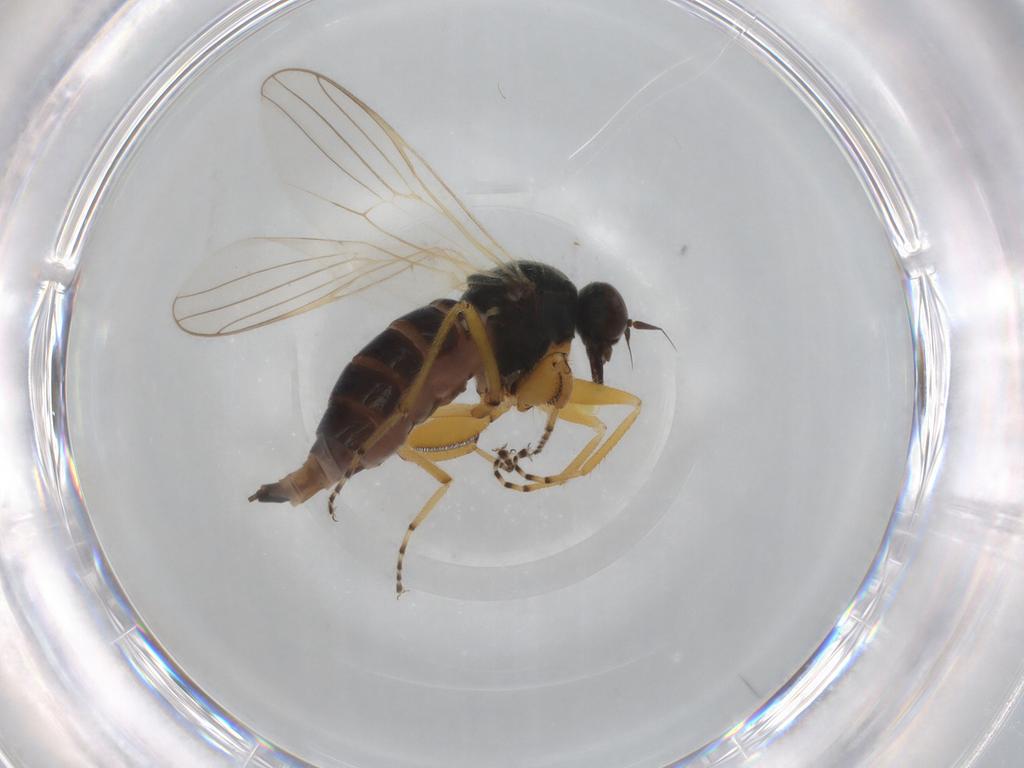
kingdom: Animalia
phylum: Arthropoda
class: Insecta
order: Diptera
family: Hybotidae
